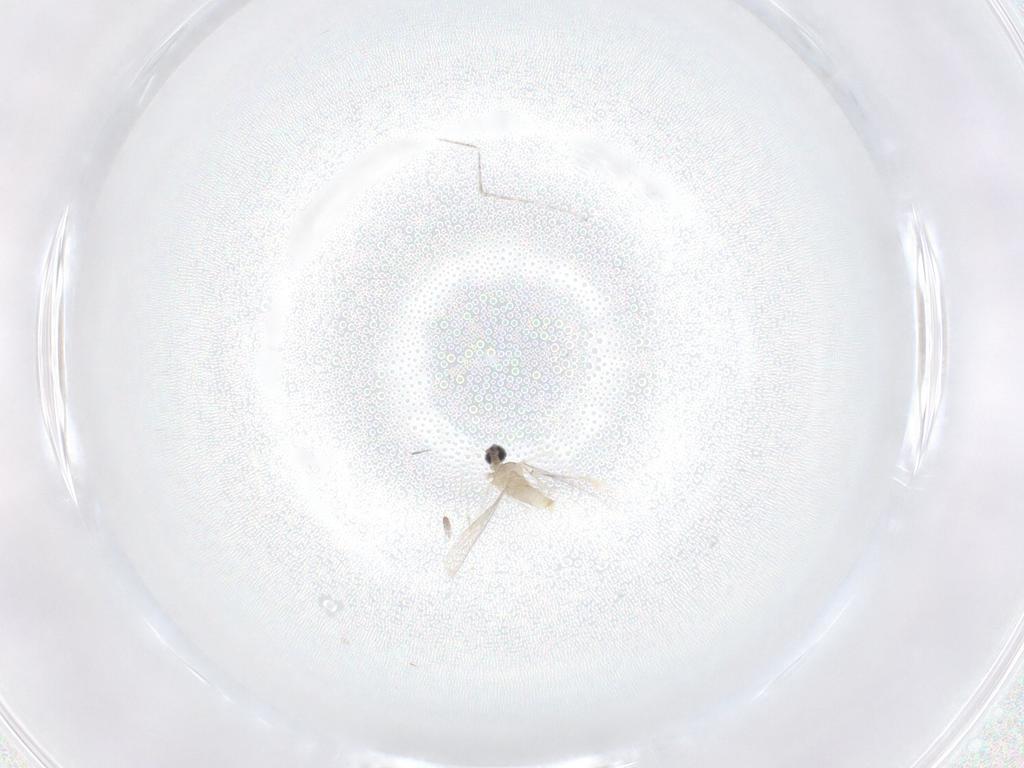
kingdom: Animalia
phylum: Arthropoda
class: Insecta
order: Diptera
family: Cecidomyiidae
